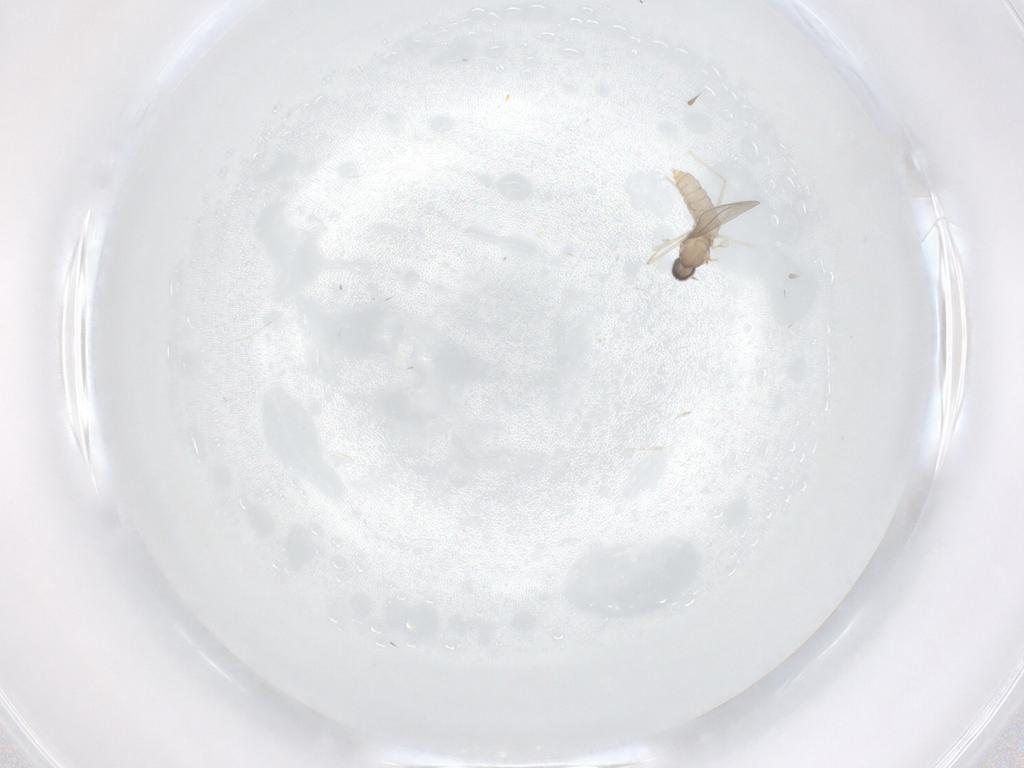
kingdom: Animalia
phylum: Arthropoda
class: Insecta
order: Diptera
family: Cecidomyiidae
